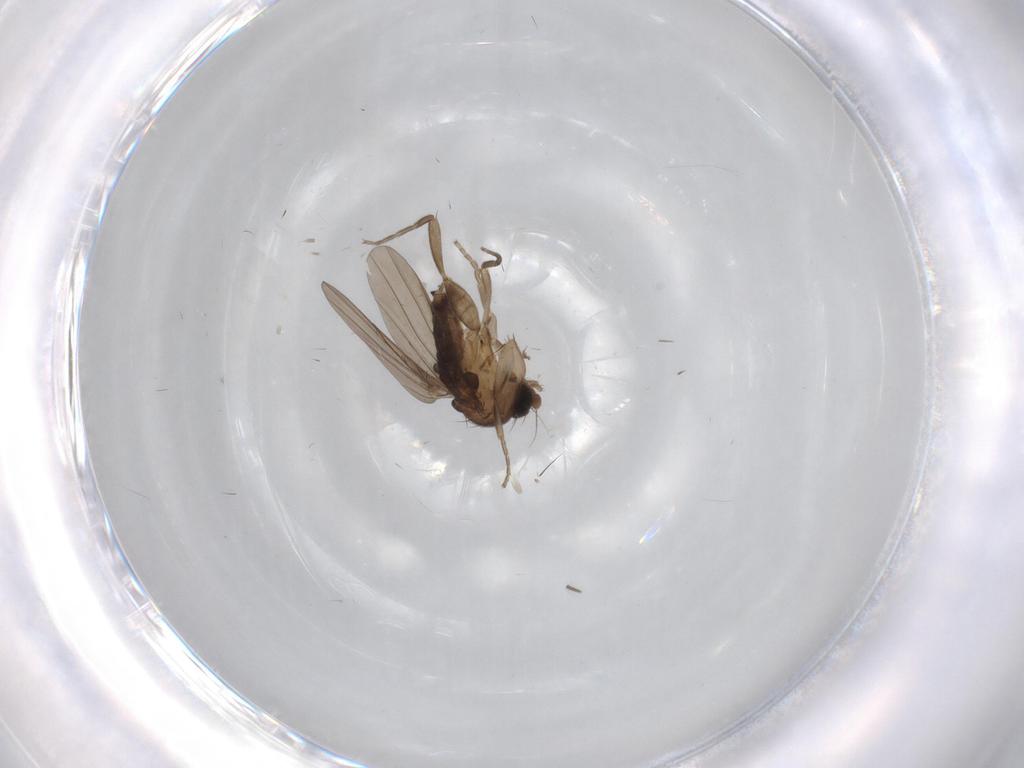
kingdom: Animalia
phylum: Arthropoda
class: Insecta
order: Diptera
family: Limoniidae
